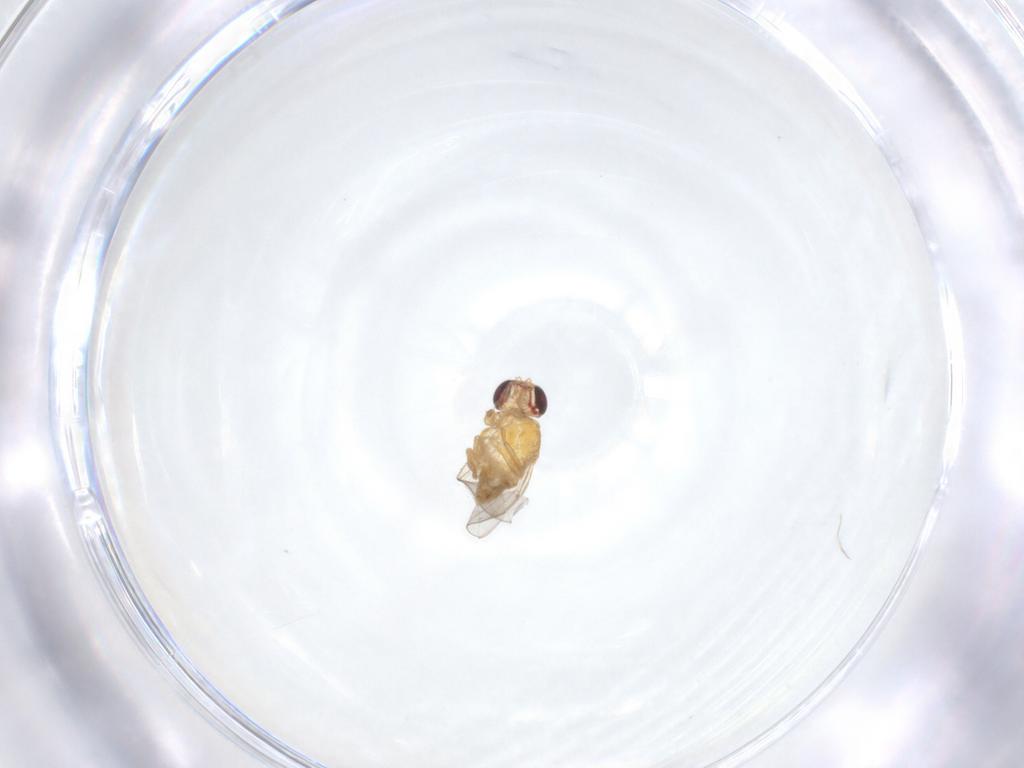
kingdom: Animalia
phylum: Arthropoda
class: Insecta
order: Diptera
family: Chloropidae
